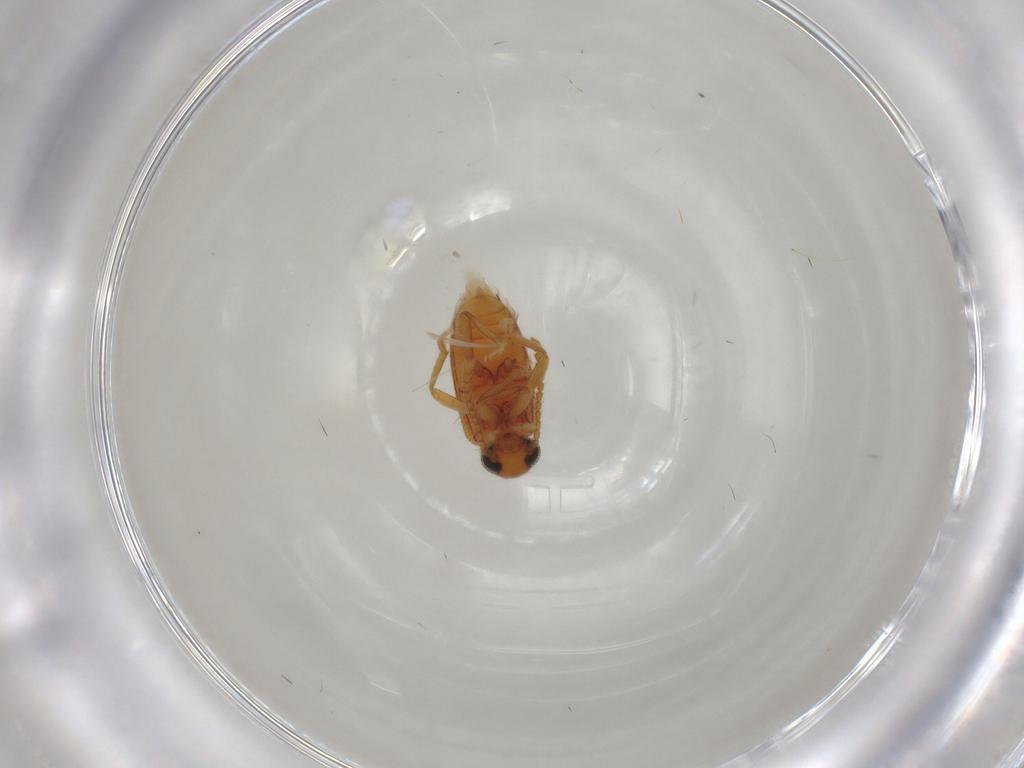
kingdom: Animalia
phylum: Arthropoda
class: Insecta
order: Coleoptera
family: Aderidae
